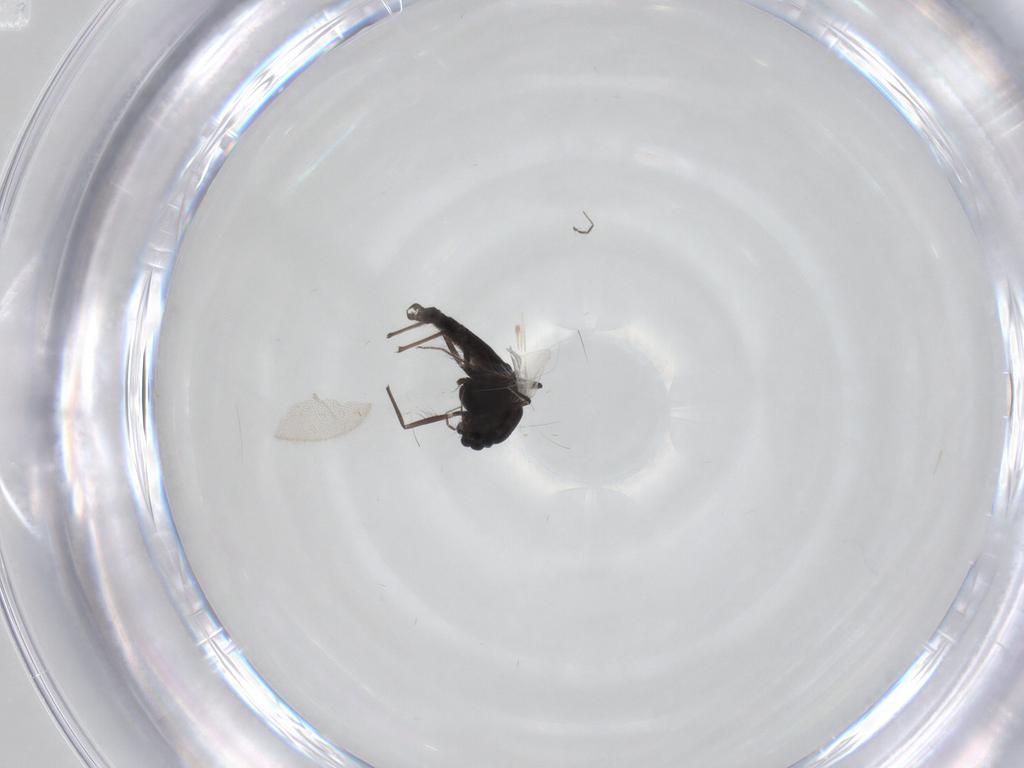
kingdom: Animalia
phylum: Arthropoda
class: Insecta
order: Diptera
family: Chironomidae
